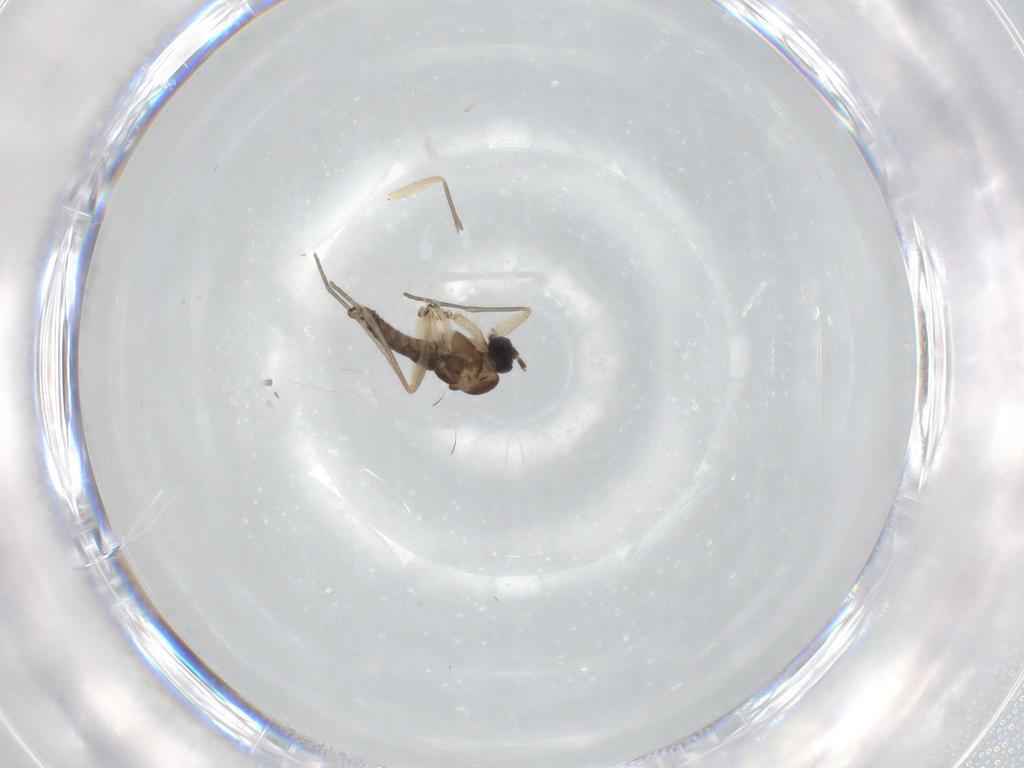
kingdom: Animalia
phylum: Arthropoda
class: Insecta
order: Diptera
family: Sciaridae
